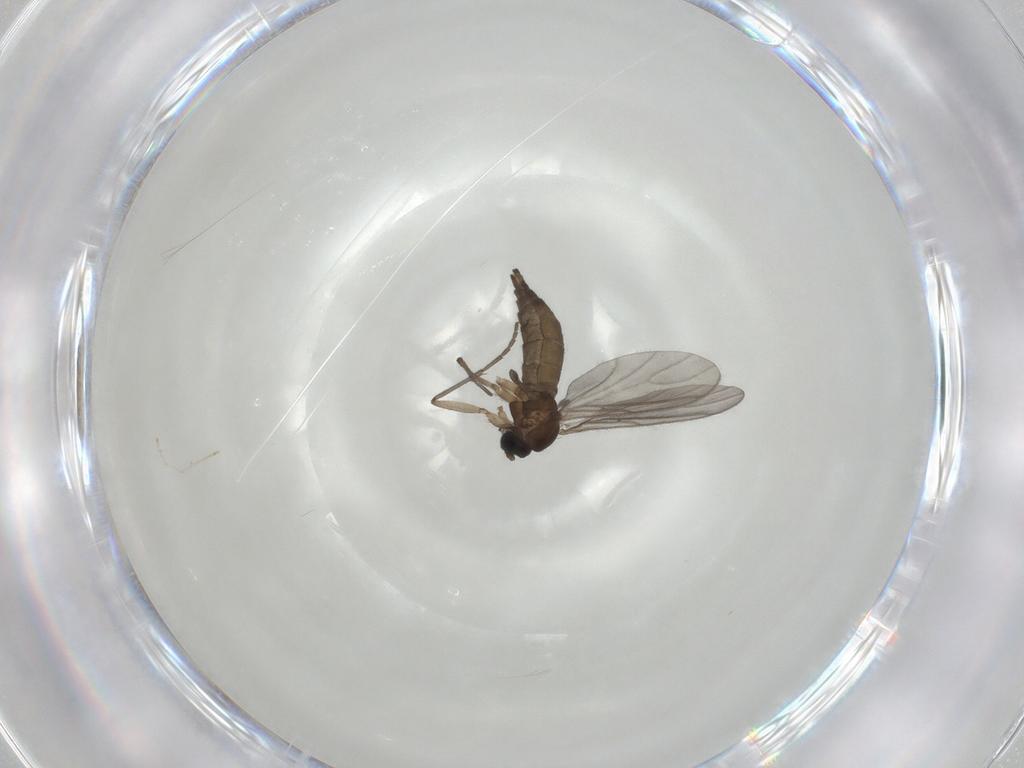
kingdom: Animalia
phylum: Arthropoda
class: Insecta
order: Diptera
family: Sciaridae
